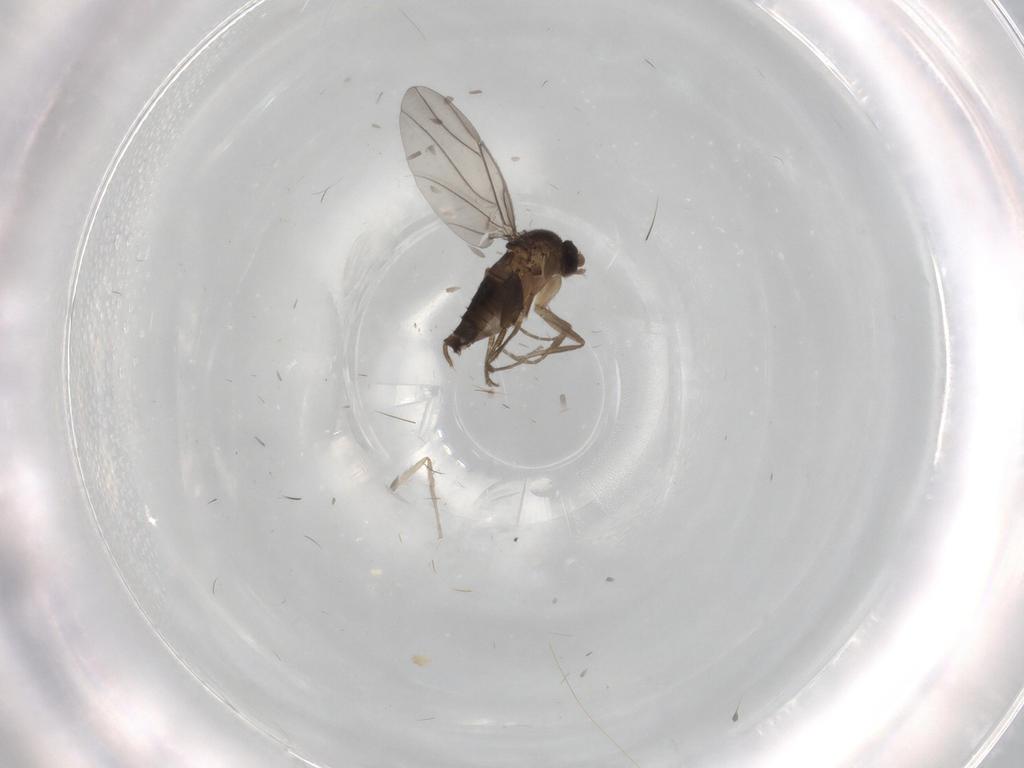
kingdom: Animalia
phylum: Arthropoda
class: Insecta
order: Diptera
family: Phoridae
